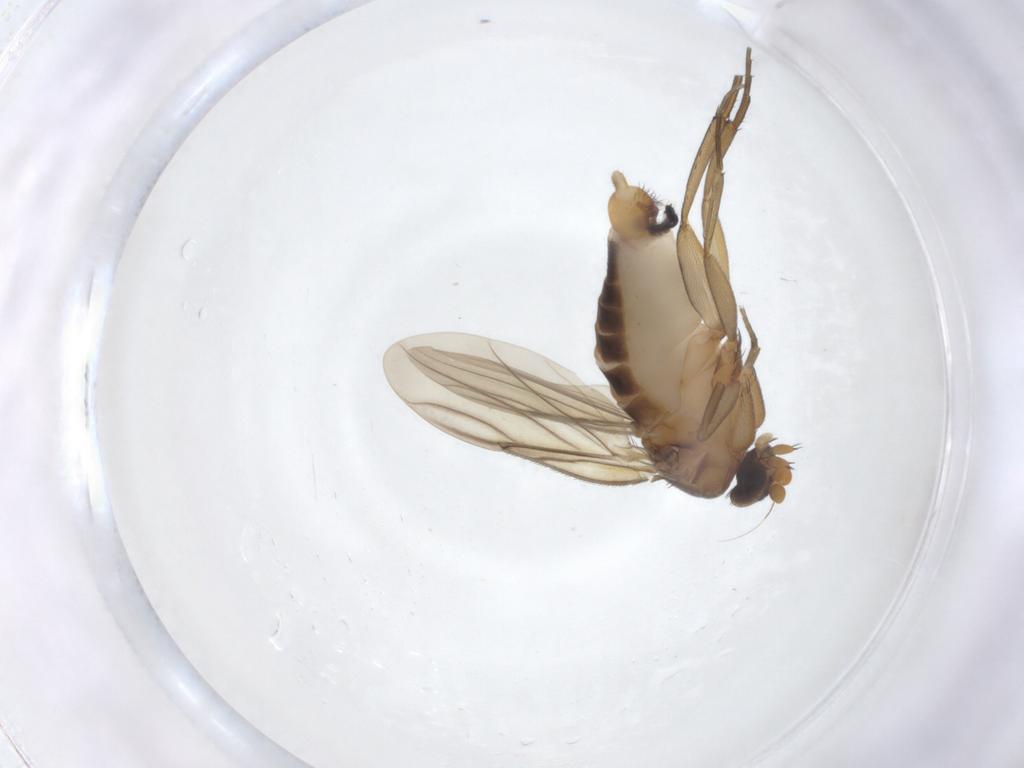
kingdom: Animalia
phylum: Arthropoda
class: Insecta
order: Diptera
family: Phoridae
